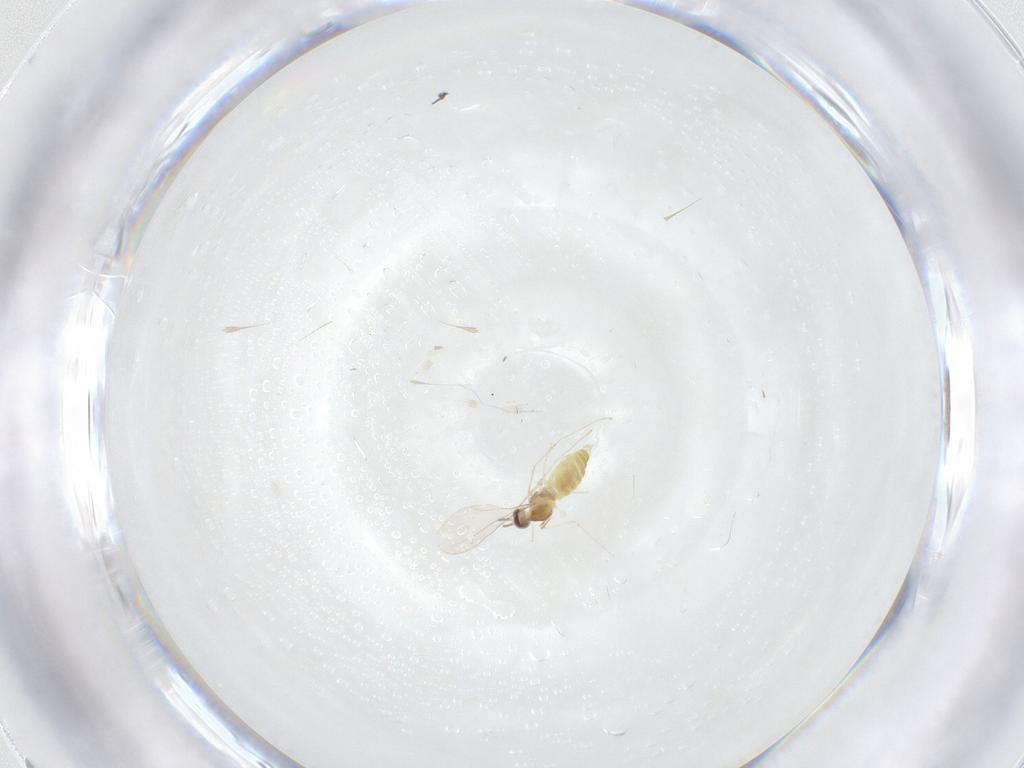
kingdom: Animalia
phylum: Arthropoda
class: Insecta
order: Diptera
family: Cecidomyiidae
